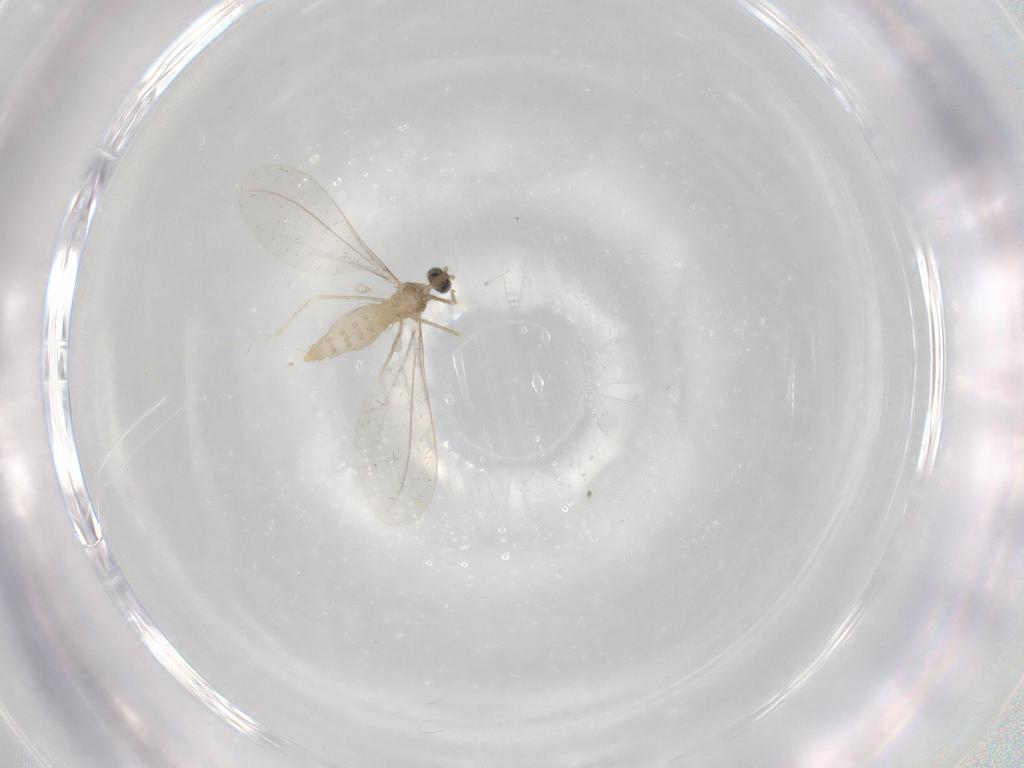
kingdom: Animalia
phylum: Arthropoda
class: Insecta
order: Diptera
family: Cecidomyiidae
